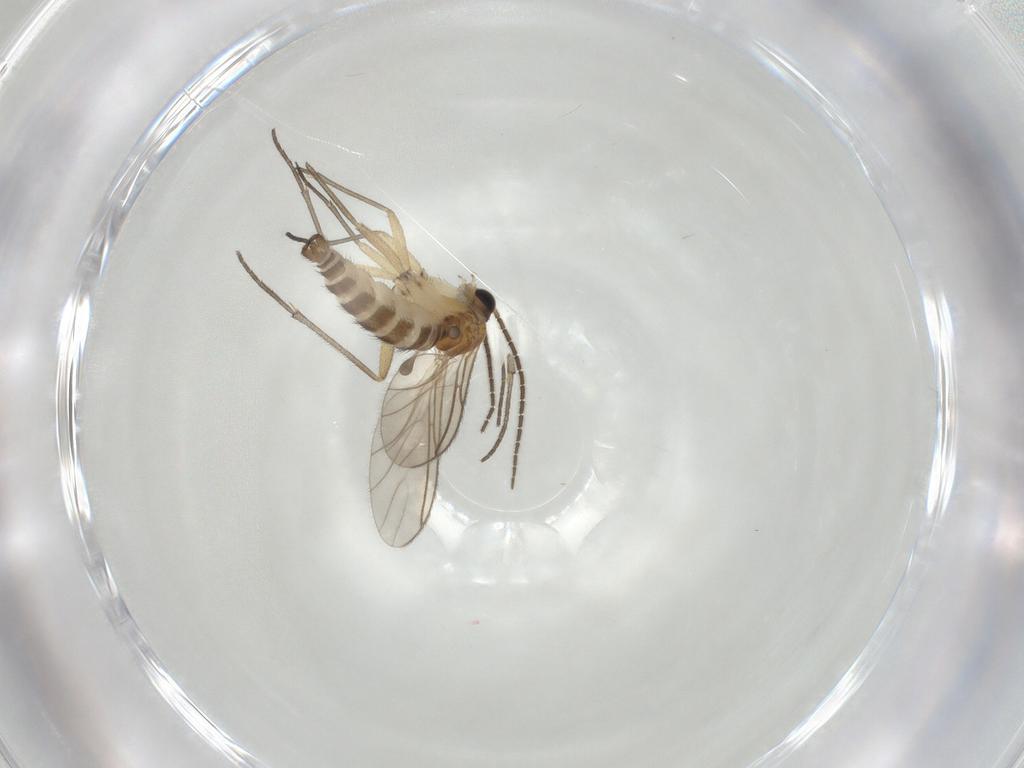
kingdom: Animalia
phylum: Arthropoda
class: Insecta
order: Diptera
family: Sciaridae
